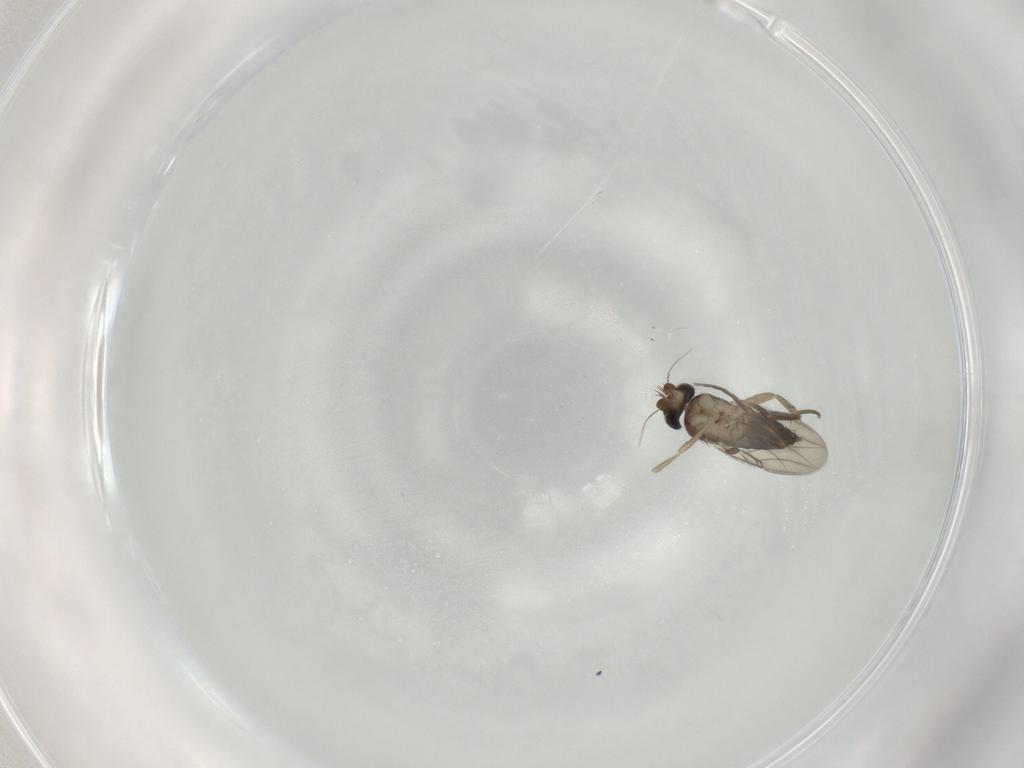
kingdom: Animalia
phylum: Arthropoda
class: Insecta
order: Diptera
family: Phoridae
